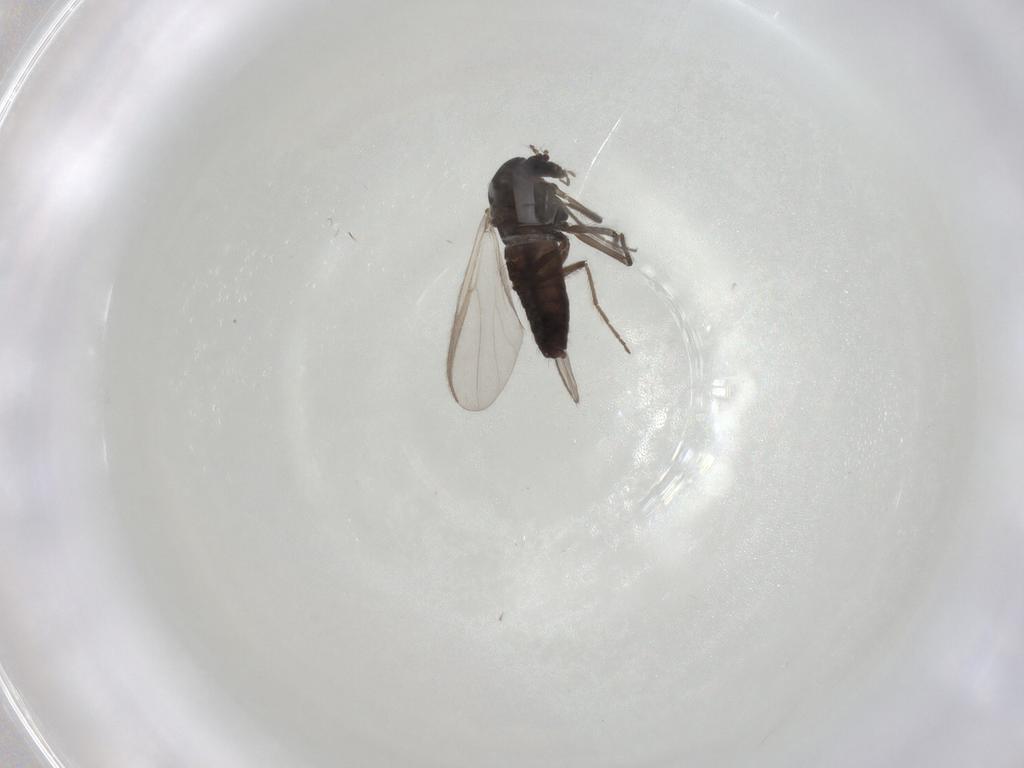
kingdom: Animalia
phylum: Arthropoda
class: Insecta
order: Diptera
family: Chironomidae
